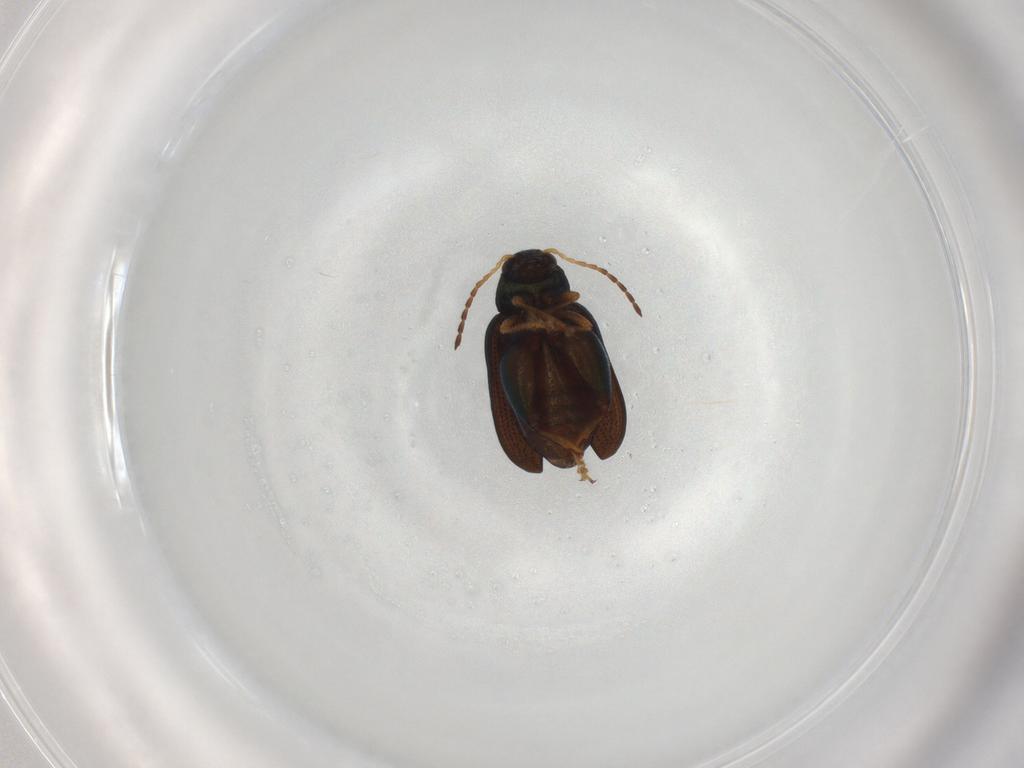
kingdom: Animalia
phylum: Arthropoda
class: Insecta
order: Coleoptera
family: Chrysomelidae
